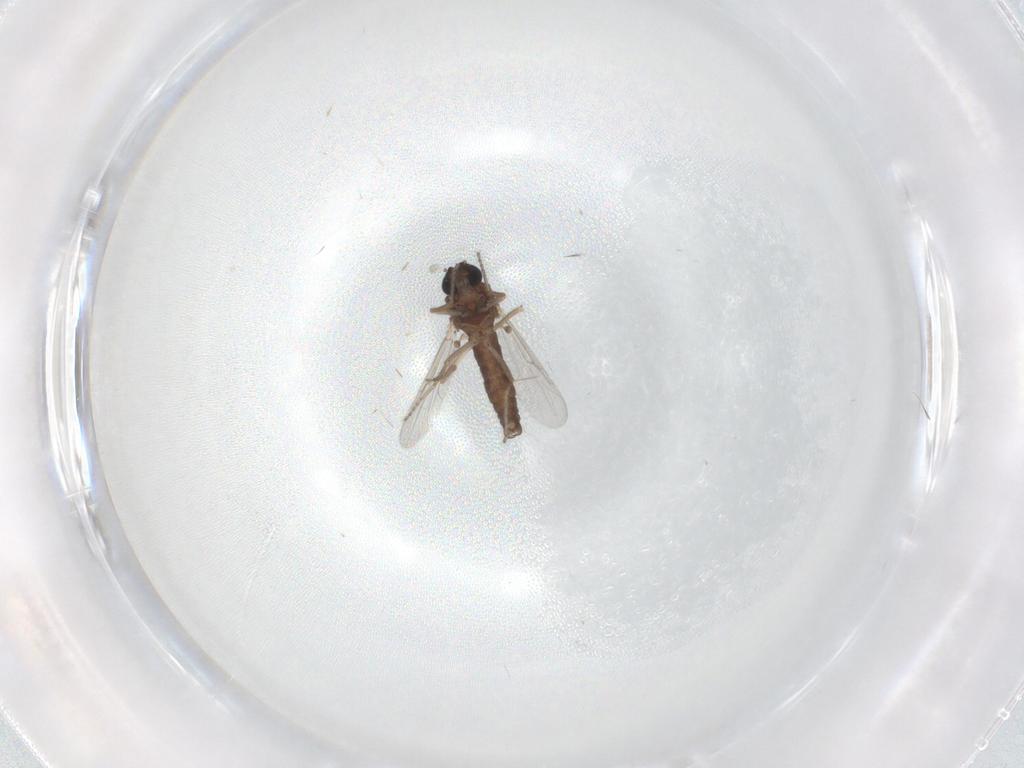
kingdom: Animalia
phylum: Arthropoda
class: Insecta
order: Diptera
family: Ceratopogonidae
